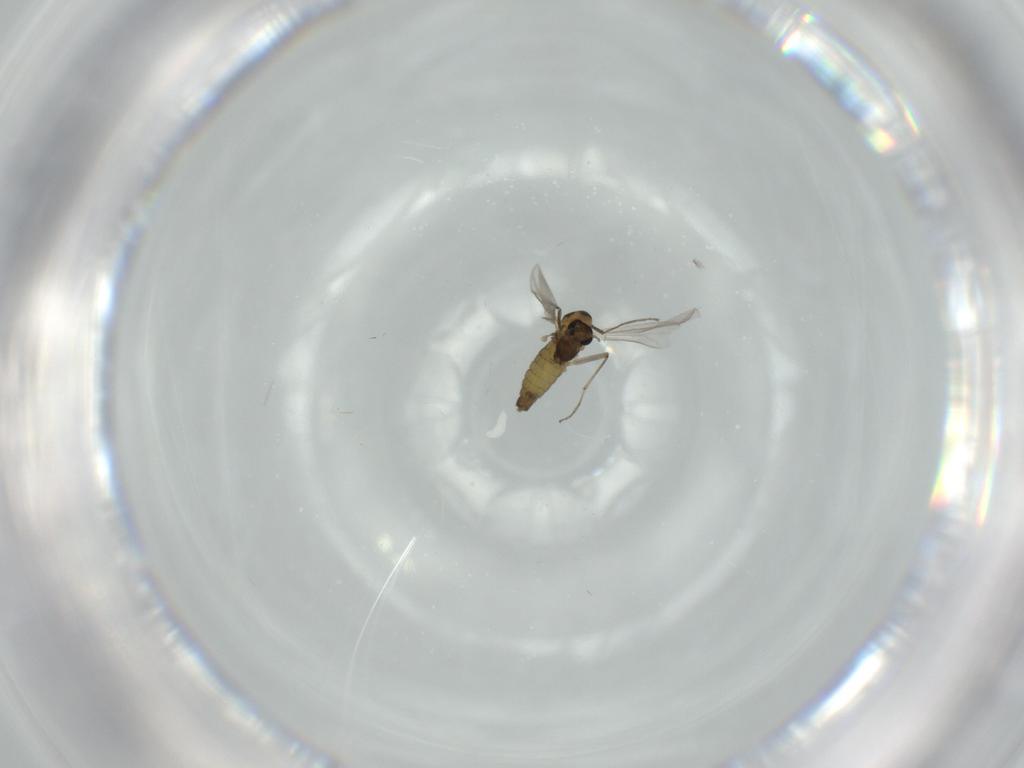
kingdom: Animalia
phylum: Arthropoda
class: Insecta
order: Diptera
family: Chironomidae
